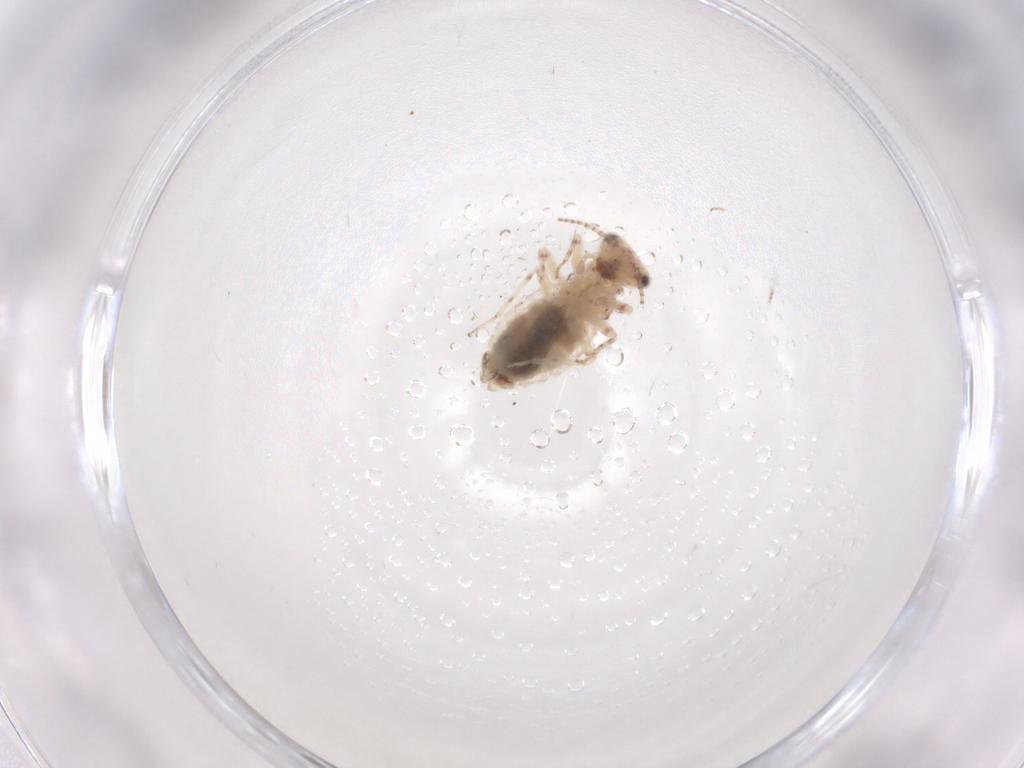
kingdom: Animalia
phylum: Arthropoda
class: Insecta
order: Psocodea
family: Trogiidae
